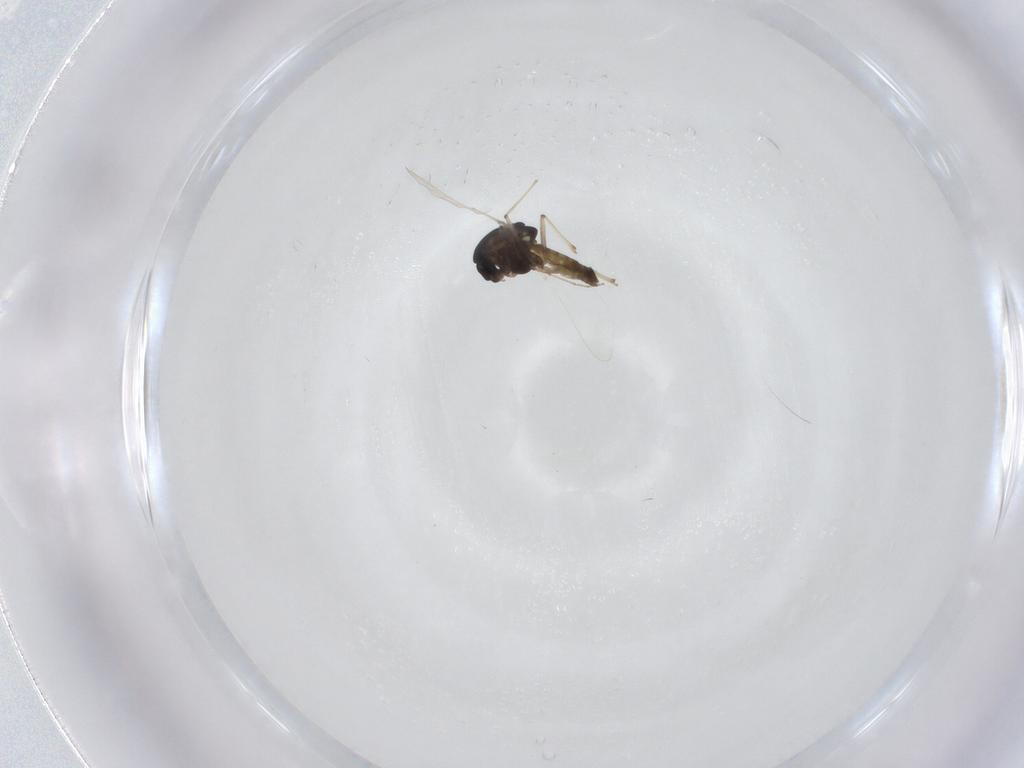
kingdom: Animalia
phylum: Arthropoda
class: Insecta
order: Diptera
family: Chironomidae
